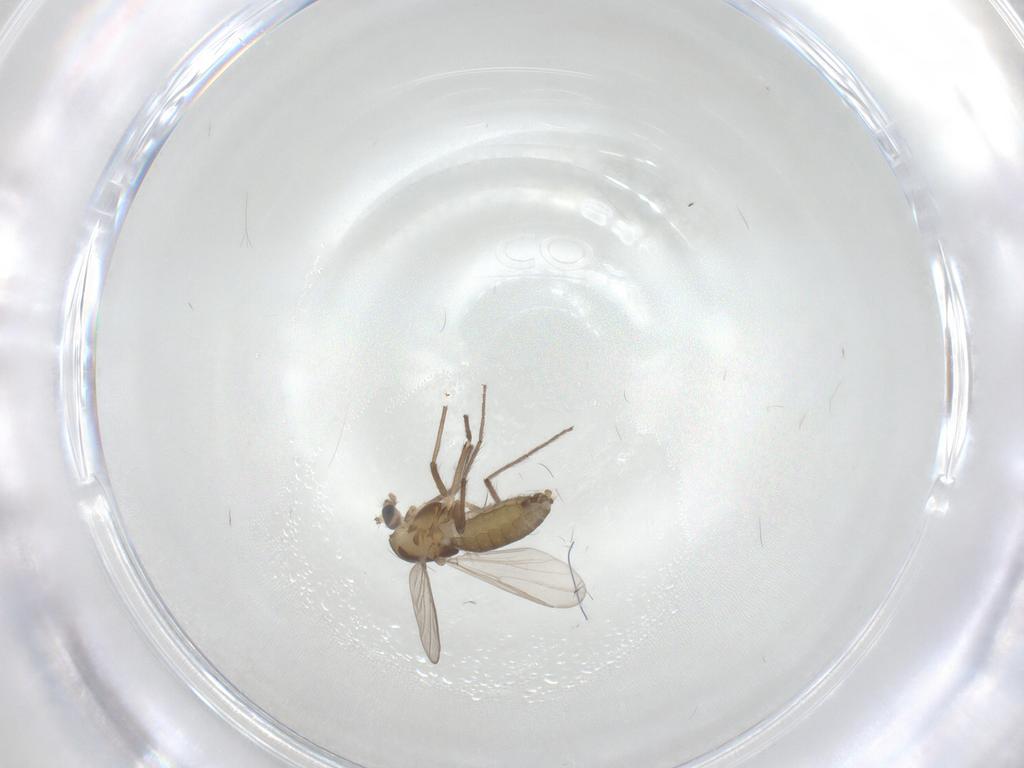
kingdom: Animalia
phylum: Arthropoda
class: Insecta
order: Diptera
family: Chironomidae
